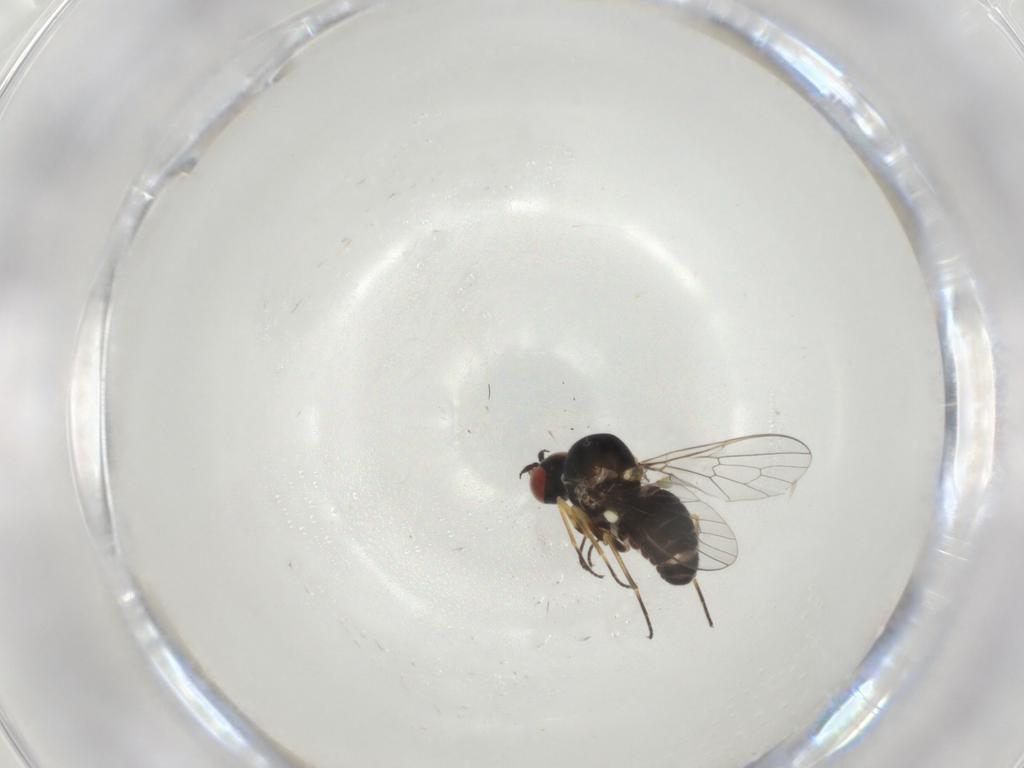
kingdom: Animalia
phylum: Arthropoda
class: Insecta
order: Diptera
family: Bombyliidae
